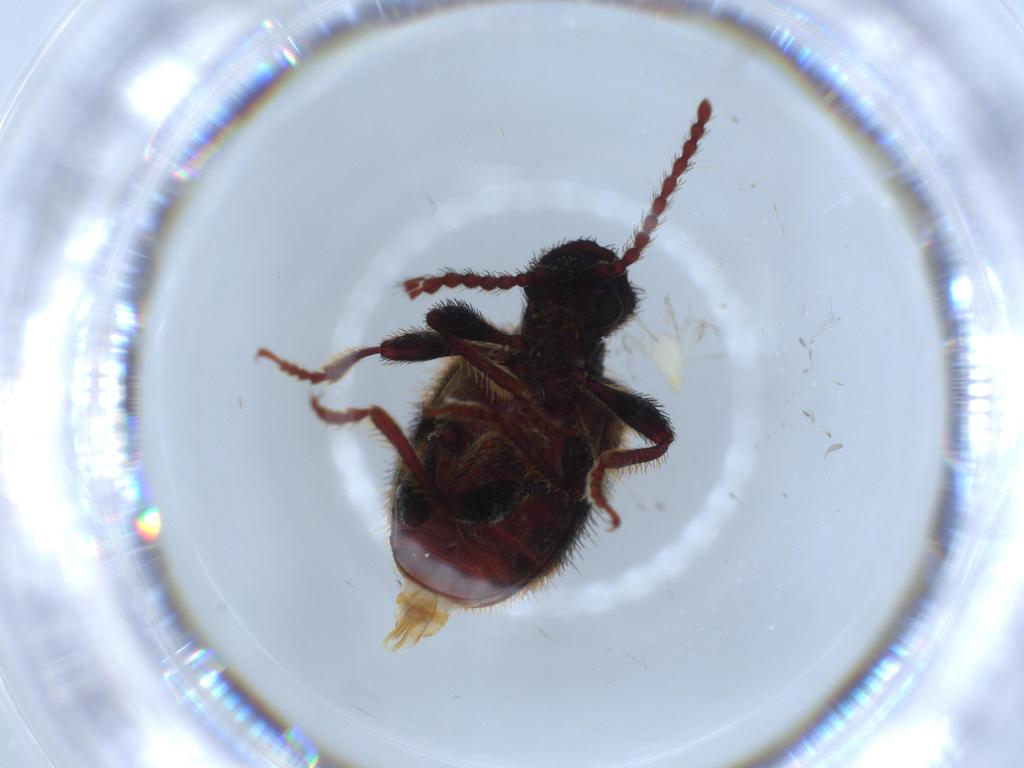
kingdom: Animalia
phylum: Arthropoda
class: Insecta
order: Coleoptera
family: Ptinidae
